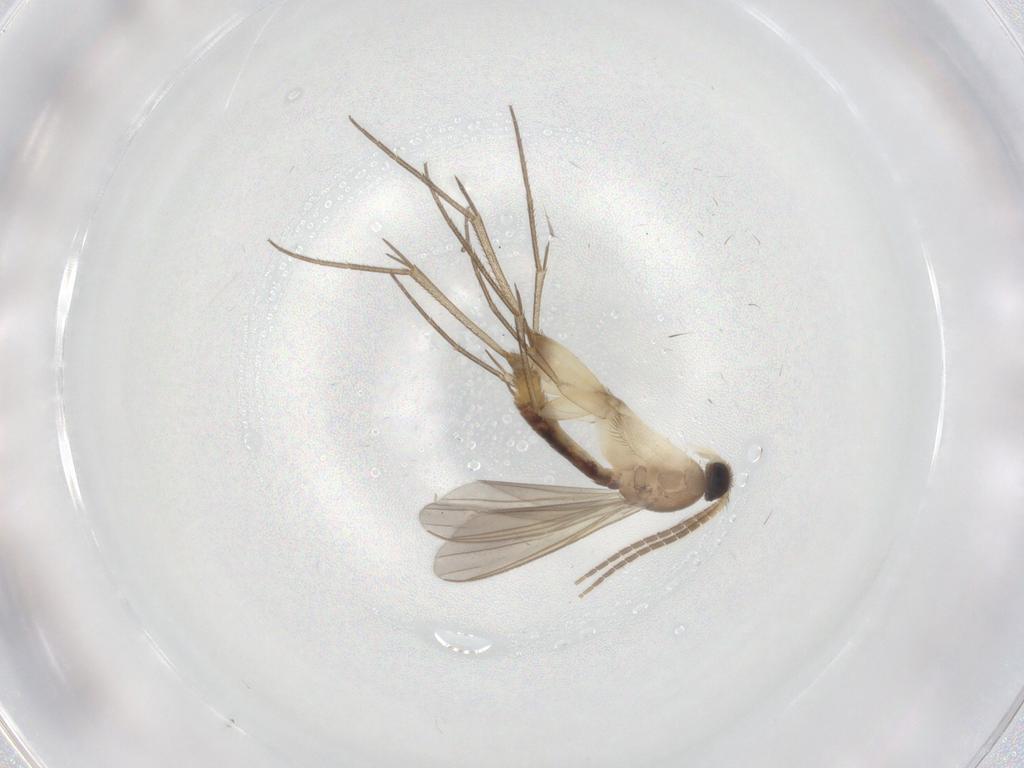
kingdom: Animalia
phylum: Arthropoda
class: Insecta
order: Diptera
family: Mycetophilidae
